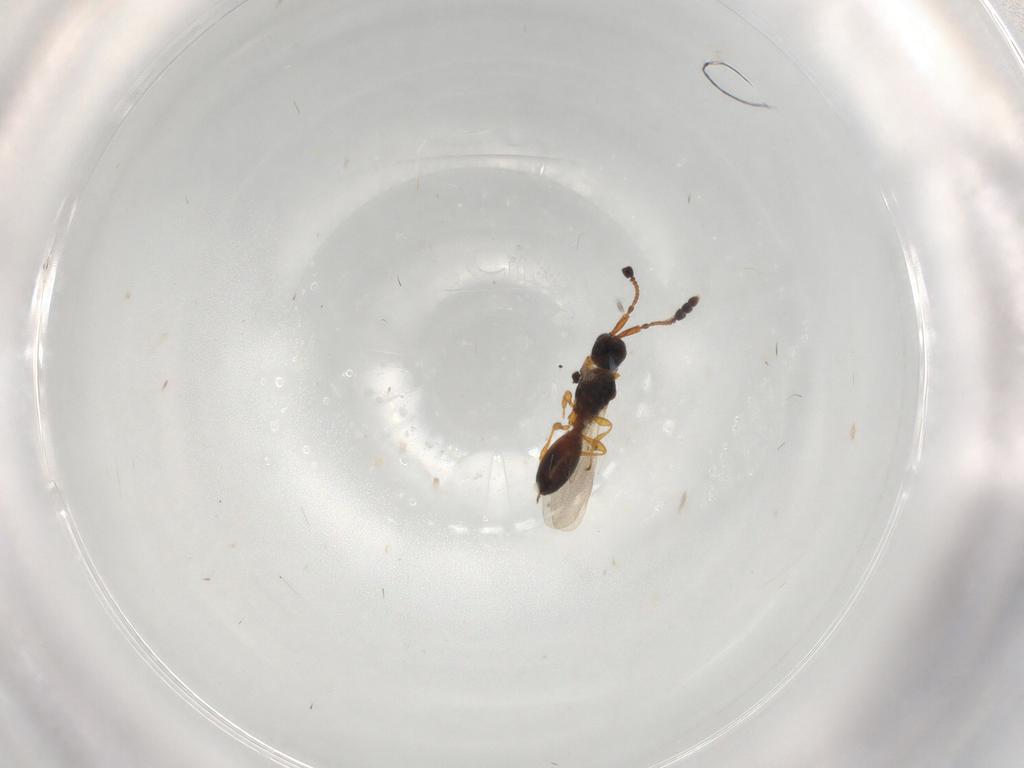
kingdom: Animalia
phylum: Arthropoda
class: Insecta
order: Hymenoptera
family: Diapriidae
